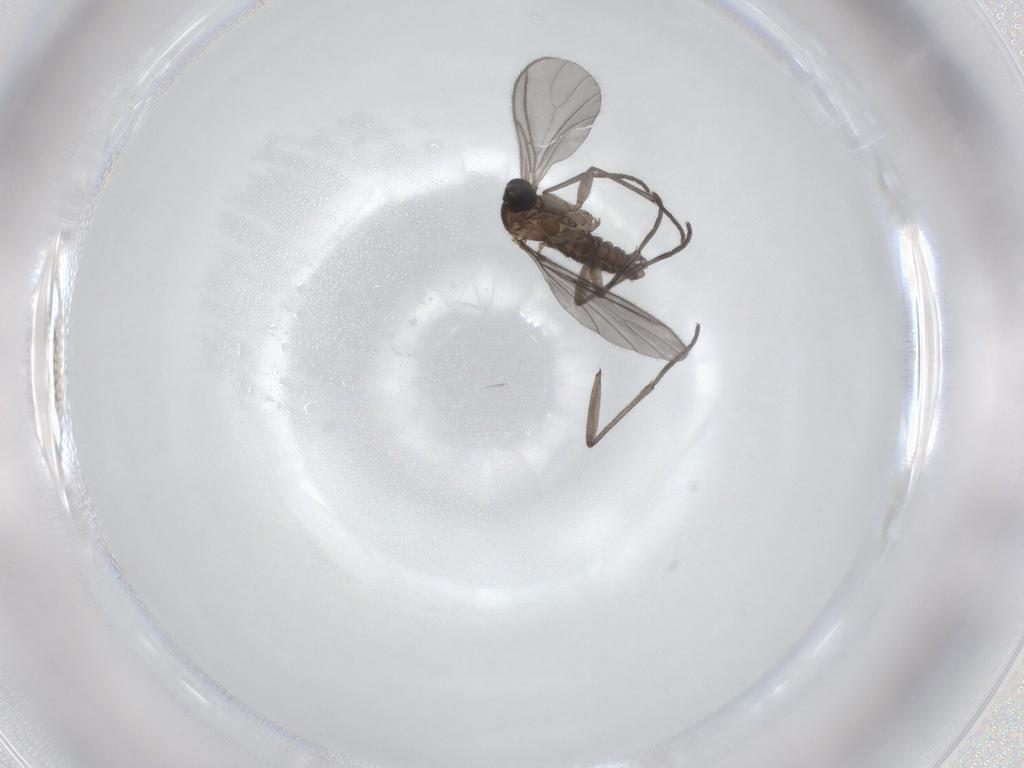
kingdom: Animalia
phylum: Arthropoda
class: Insecta
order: Diptera
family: Sciaridae
